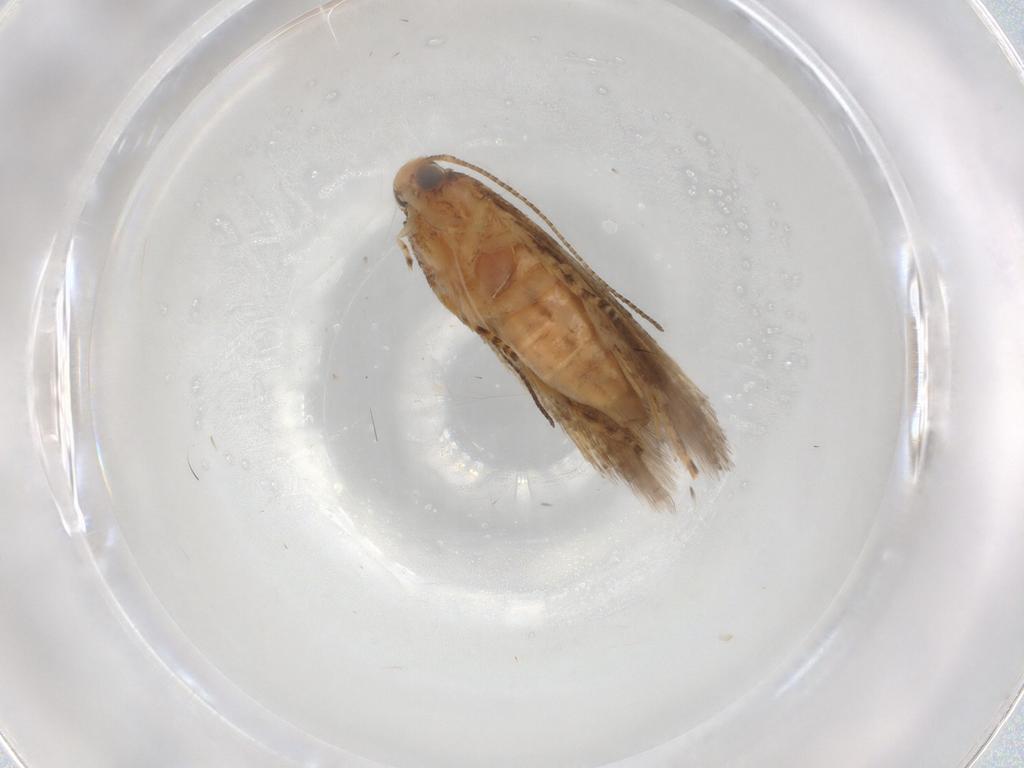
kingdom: Animalia
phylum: Arthropoda
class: Insecta
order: Lepidoptera
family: Gelechiidae
